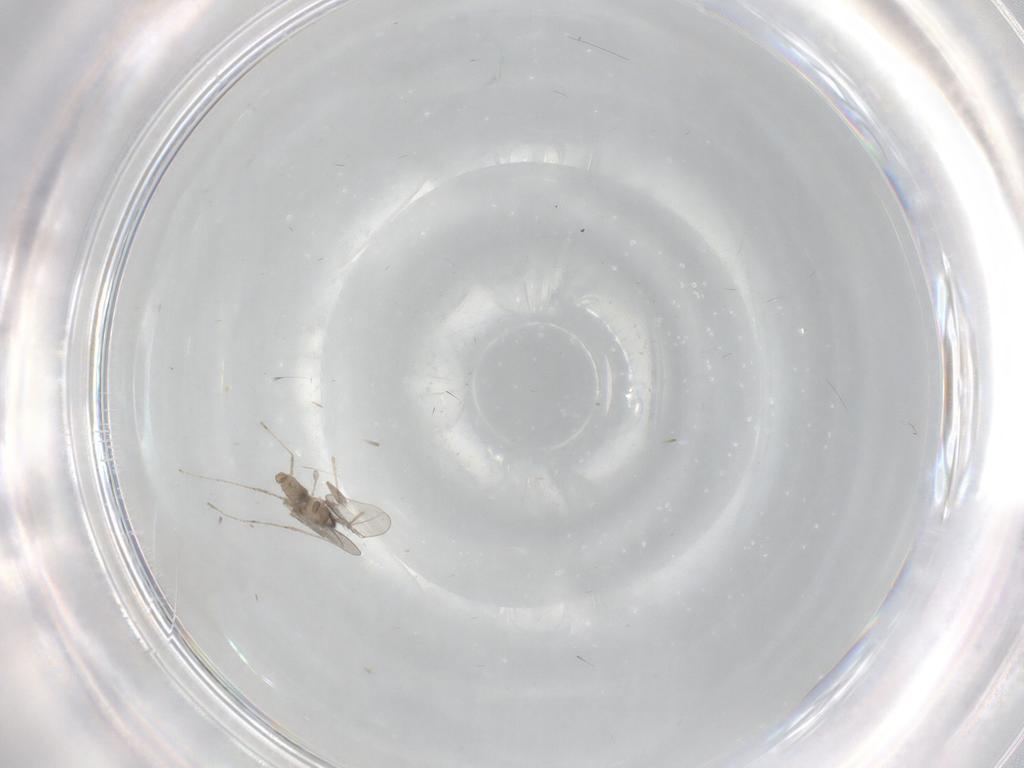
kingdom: Animalia
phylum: Arthropoda
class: Insecta
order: Diptera
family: Cecidomyiidae
